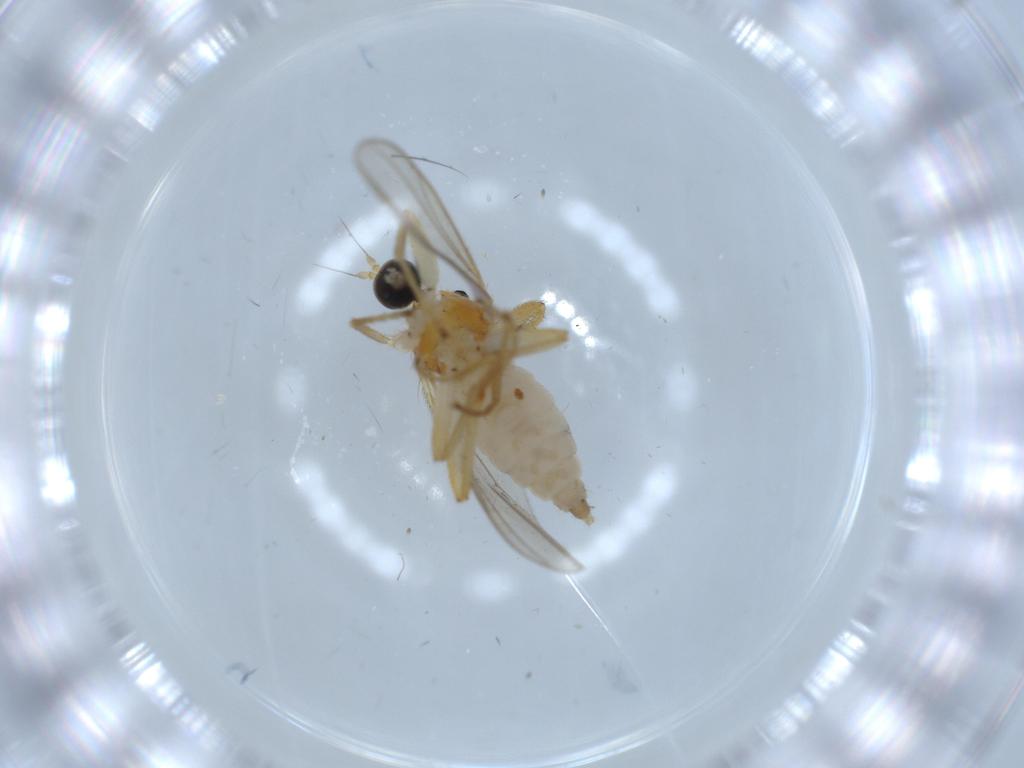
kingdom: Animalia
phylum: Arthropoda
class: Insecta
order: Diptera
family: Hybotidae
